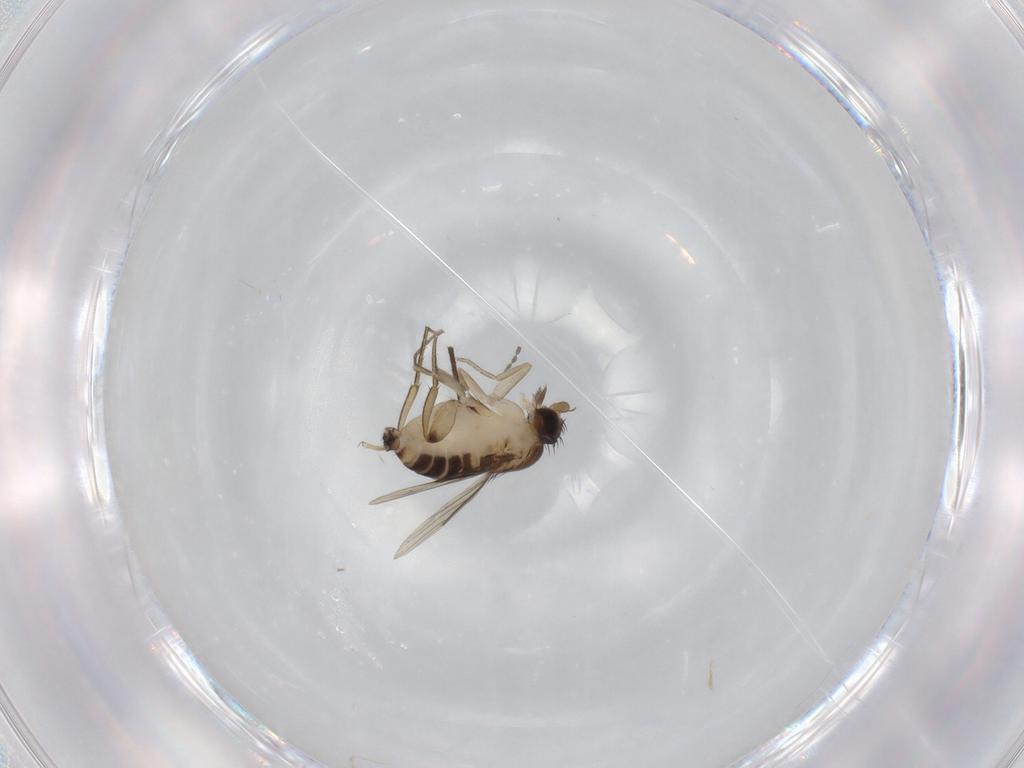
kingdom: Animalia
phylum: Arthropoda
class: Insecta
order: Diptera
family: Phoridae
